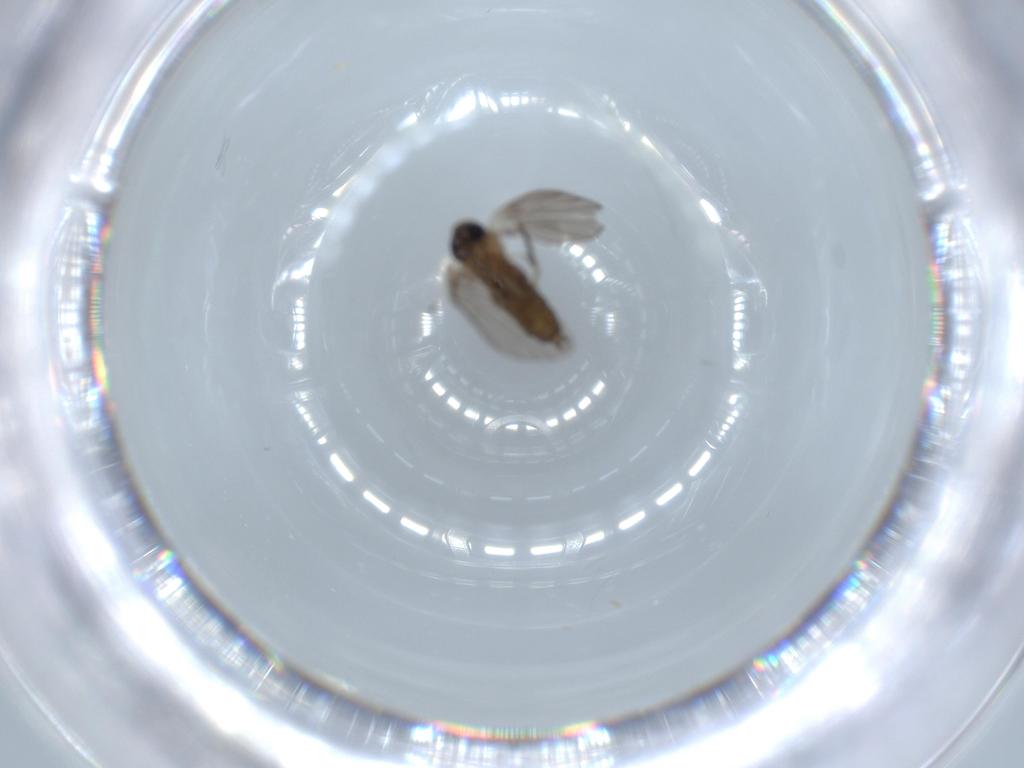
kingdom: Animalia
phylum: Arthropoda
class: Insecta
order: Diptera
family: Psychodidae
